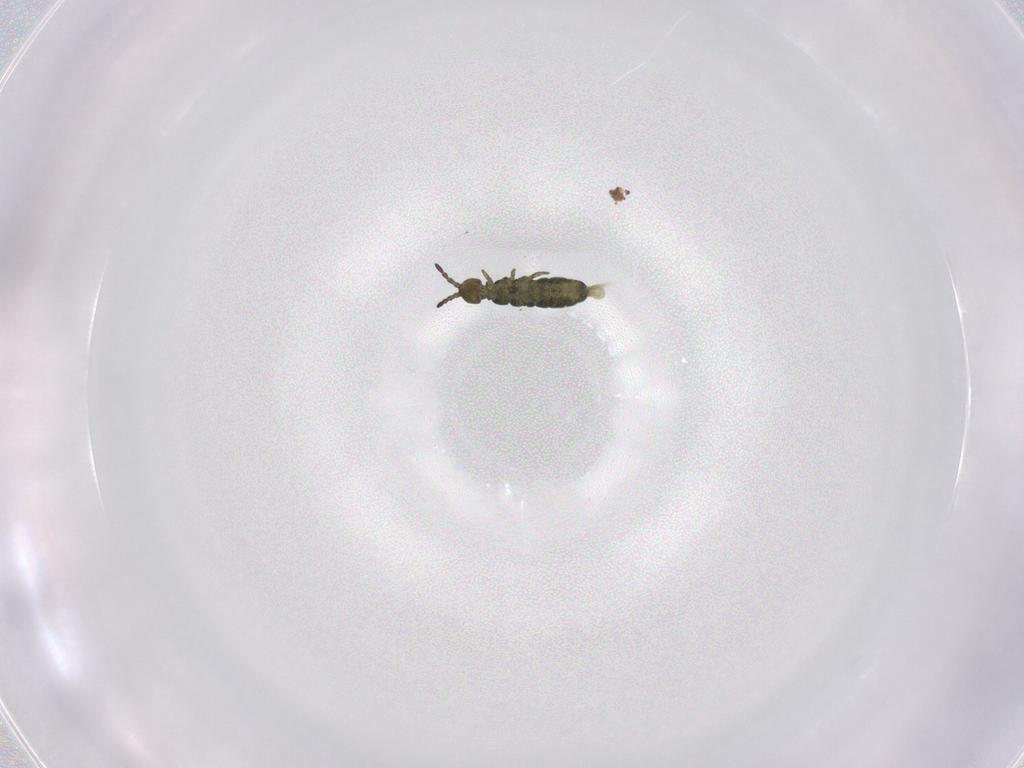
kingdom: Animalia
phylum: Arthropoda
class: Collembola
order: Entomobryomorpha
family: Isotomidae
